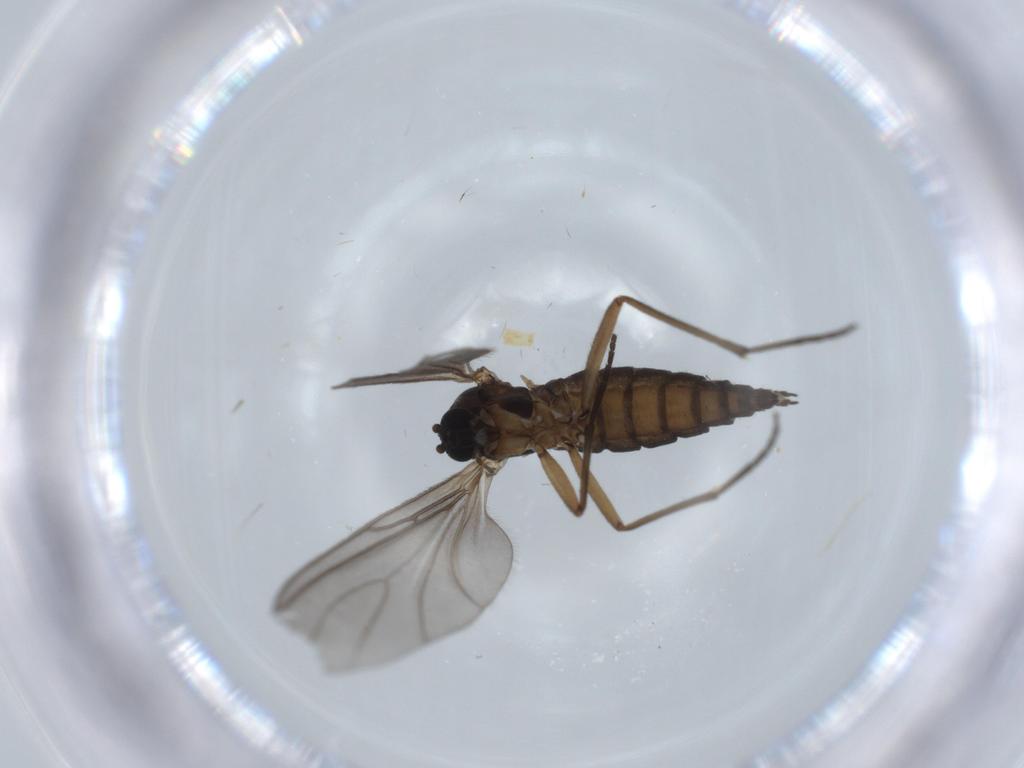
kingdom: Animalia
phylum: Arthropoda
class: Insecta
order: Diptera
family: Sciaridae
